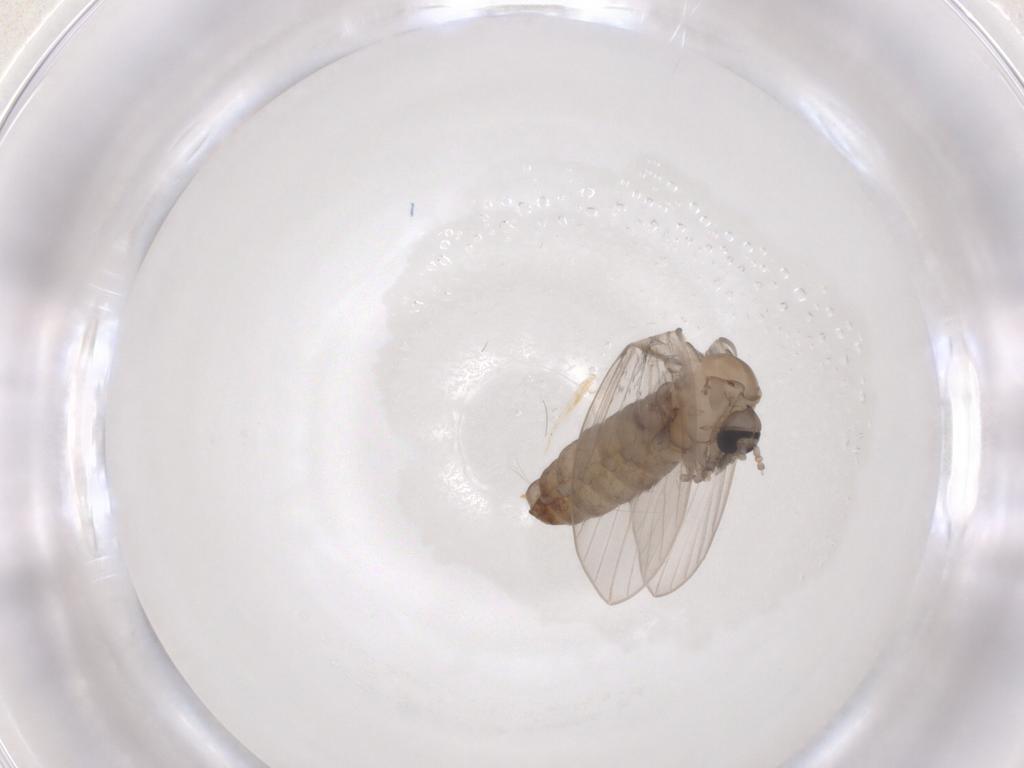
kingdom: Animalia
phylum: Arthropoda
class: Insecta
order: Diptera
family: Psychodidae
